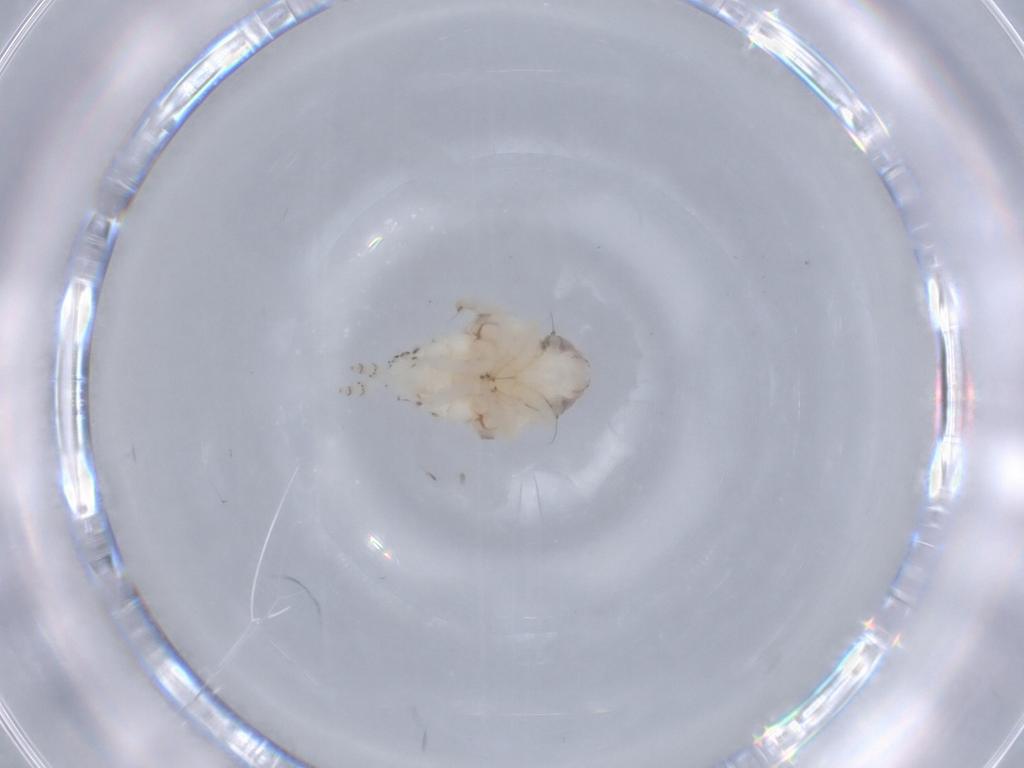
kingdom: Animalia
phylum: Arthropoda
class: Insecta
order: Hemiptera
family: Nogodinidae
